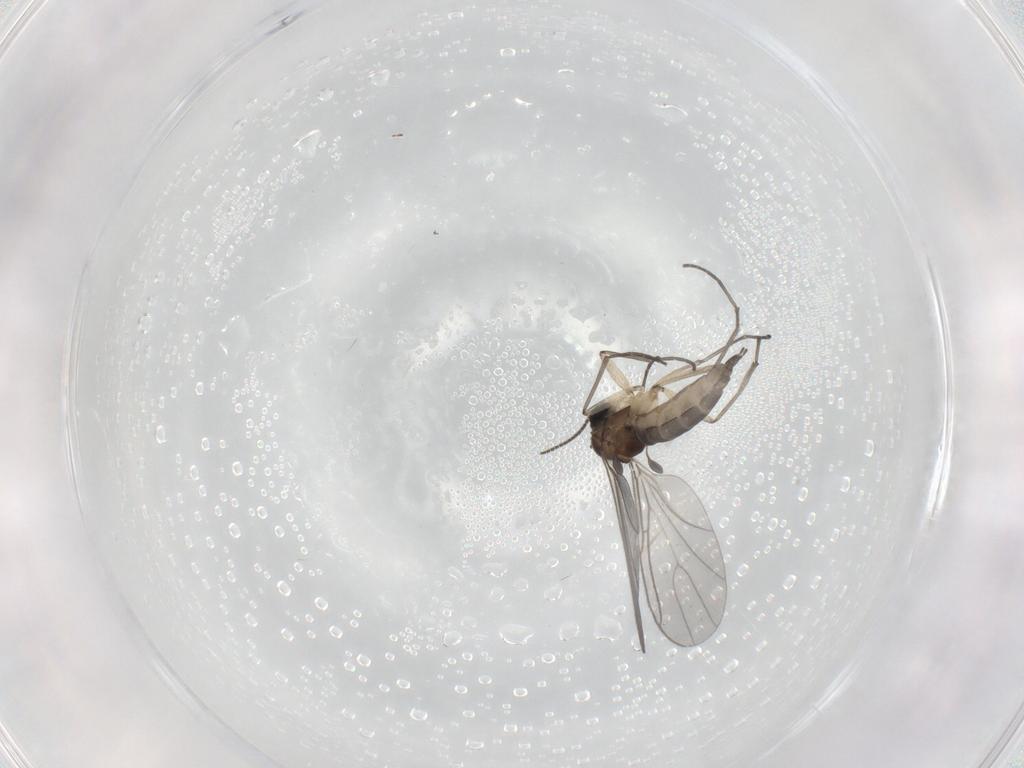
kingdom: Animalia
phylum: Arthropoda
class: Insecta
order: Diptera
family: Sciaridae
